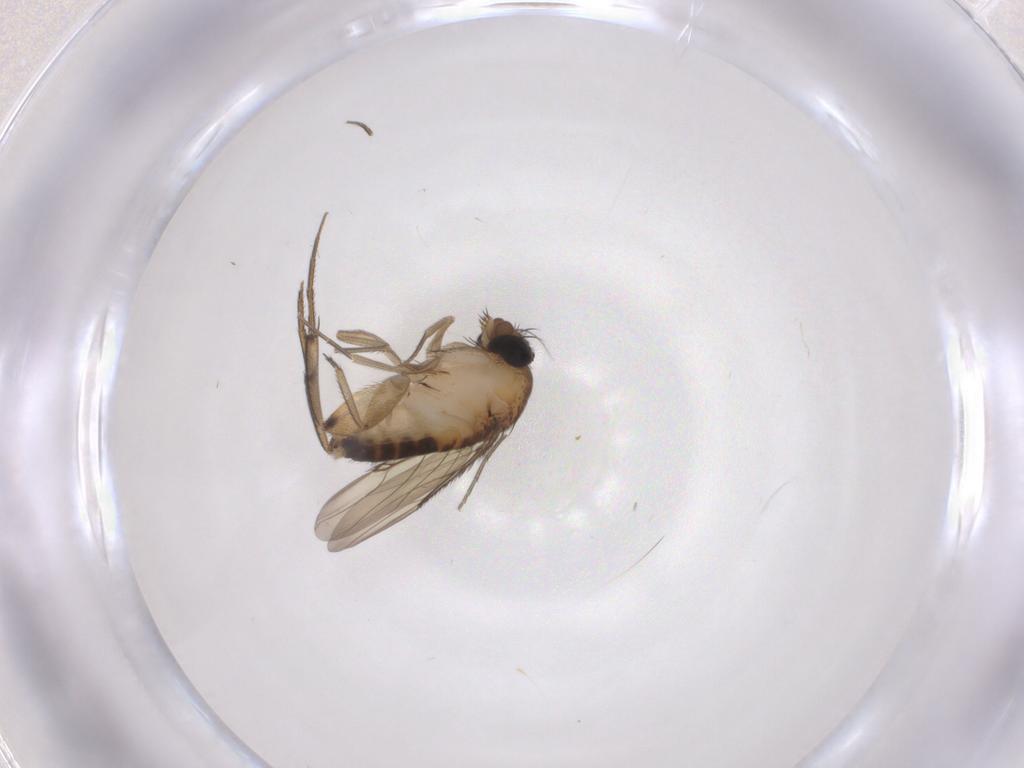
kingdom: Animalia
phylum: Arthropoda
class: Insecta
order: Diptera
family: Phoridae
